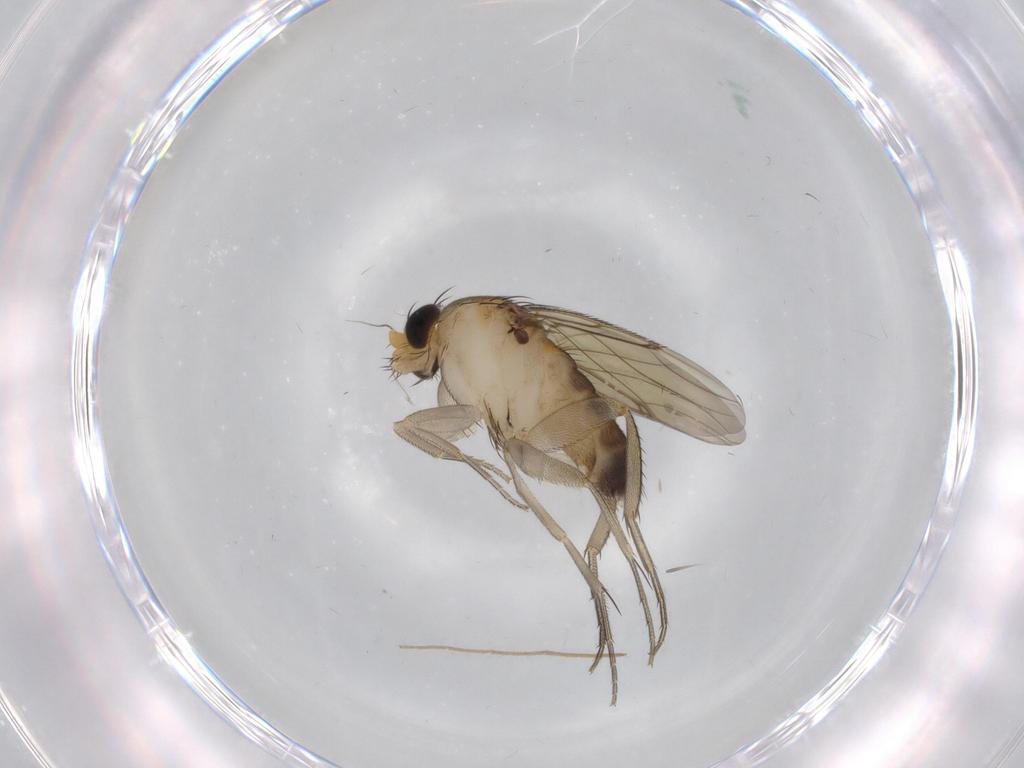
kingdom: Animalia
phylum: Arthropoda
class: Insecta
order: Diptera
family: Phoridae
